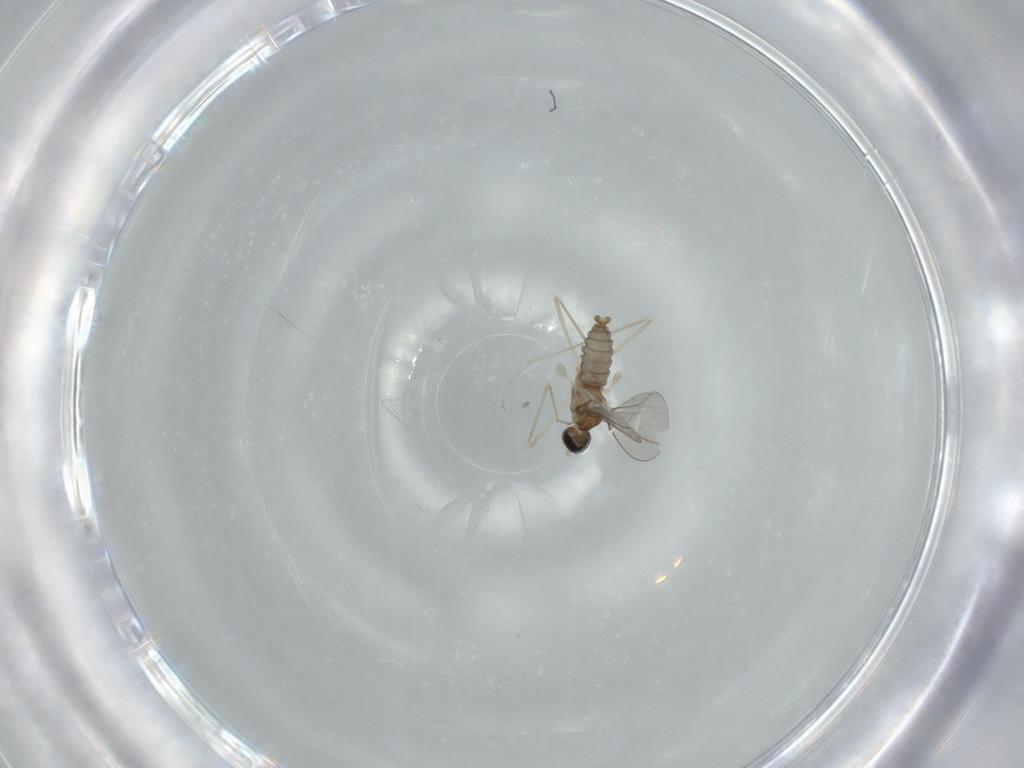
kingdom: Animalia
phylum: Arthropoda
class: Insecta
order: Diptera
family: Cecidomyiidae
